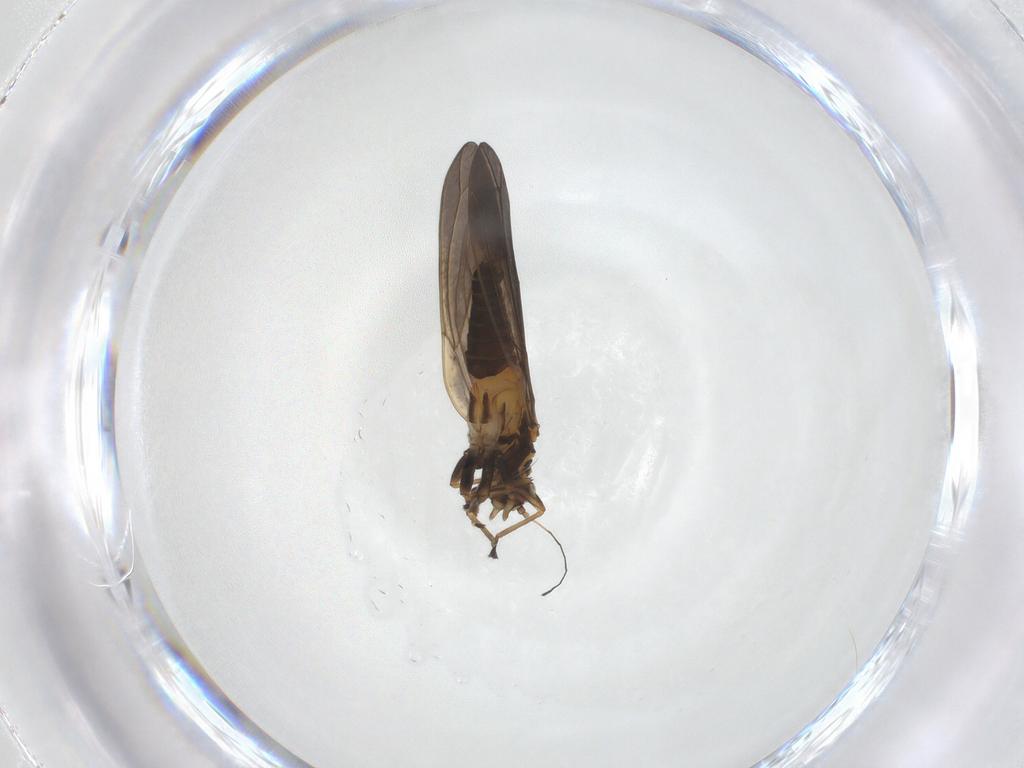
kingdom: Animalia
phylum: Arthropoda
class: Insecta
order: Hemiptera
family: Triozidae
